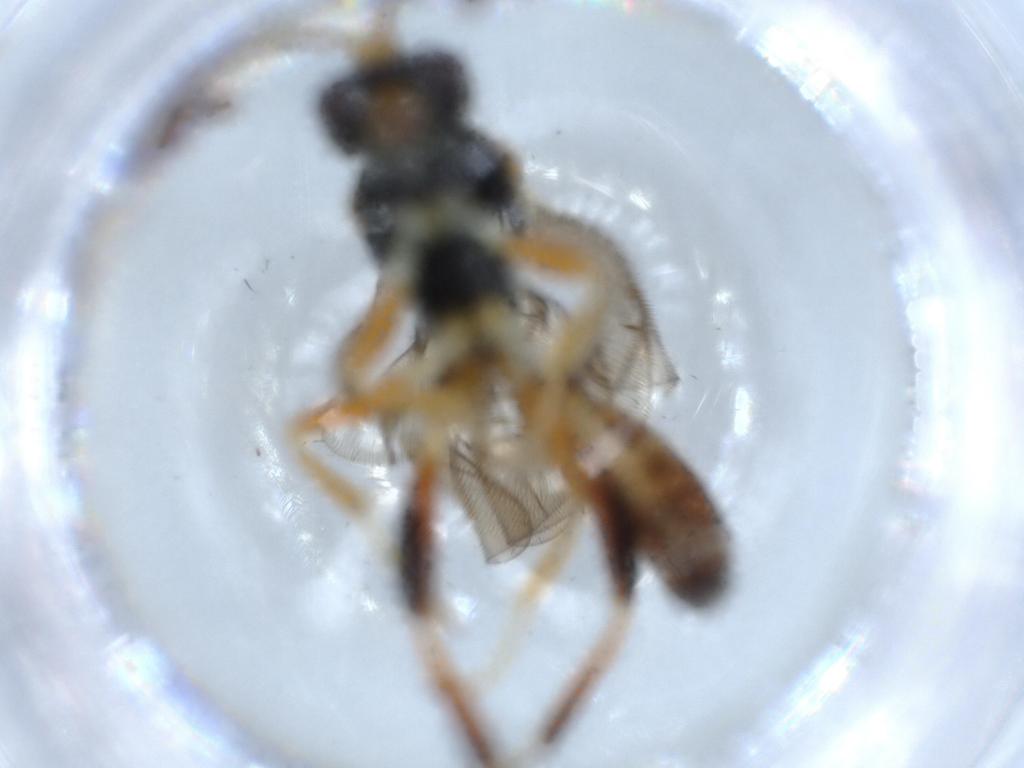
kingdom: Animalia
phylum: Arthropoda
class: Insecta
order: Hymenoptera
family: Ichneumonidae
